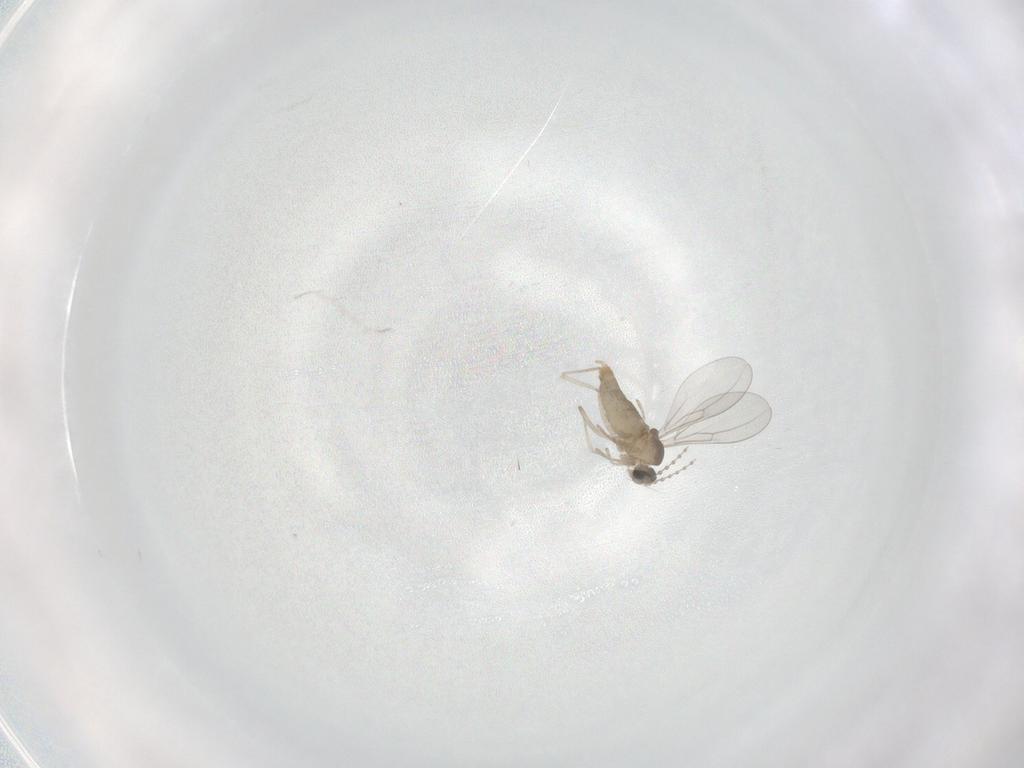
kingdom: Animalia
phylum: Arthropoda
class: Insecta
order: Diptera
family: Cecidomyiidae
